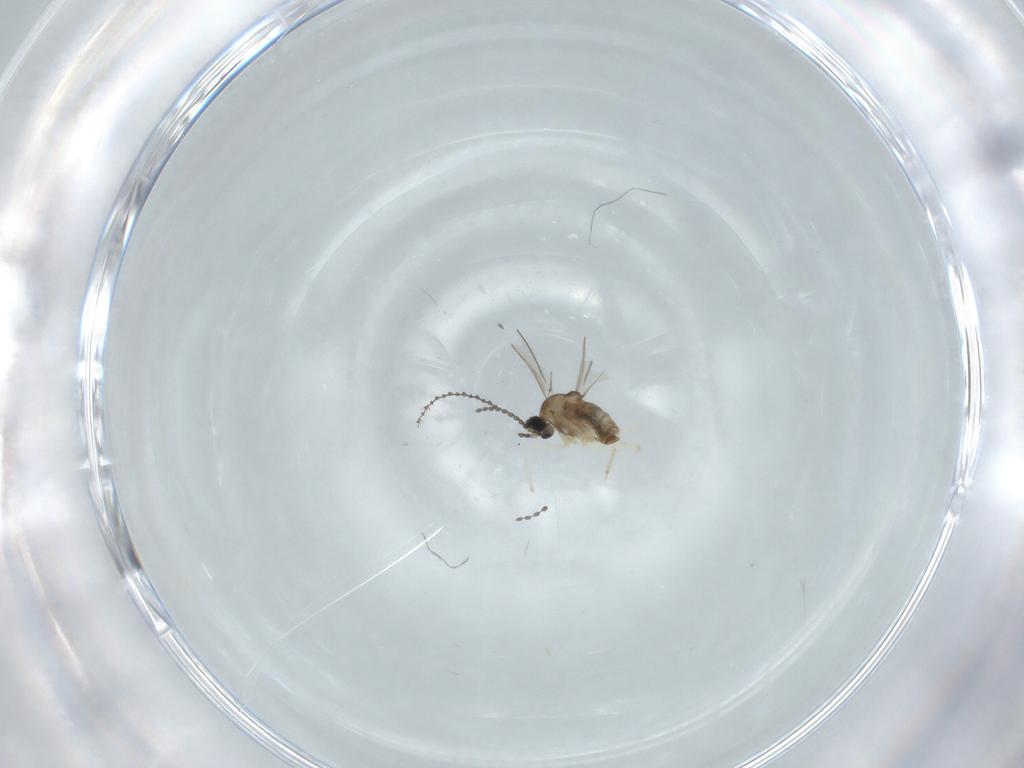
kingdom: Animalia
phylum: Arthropoda
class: Insecta
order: Diptera
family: Cecidomyiidae
